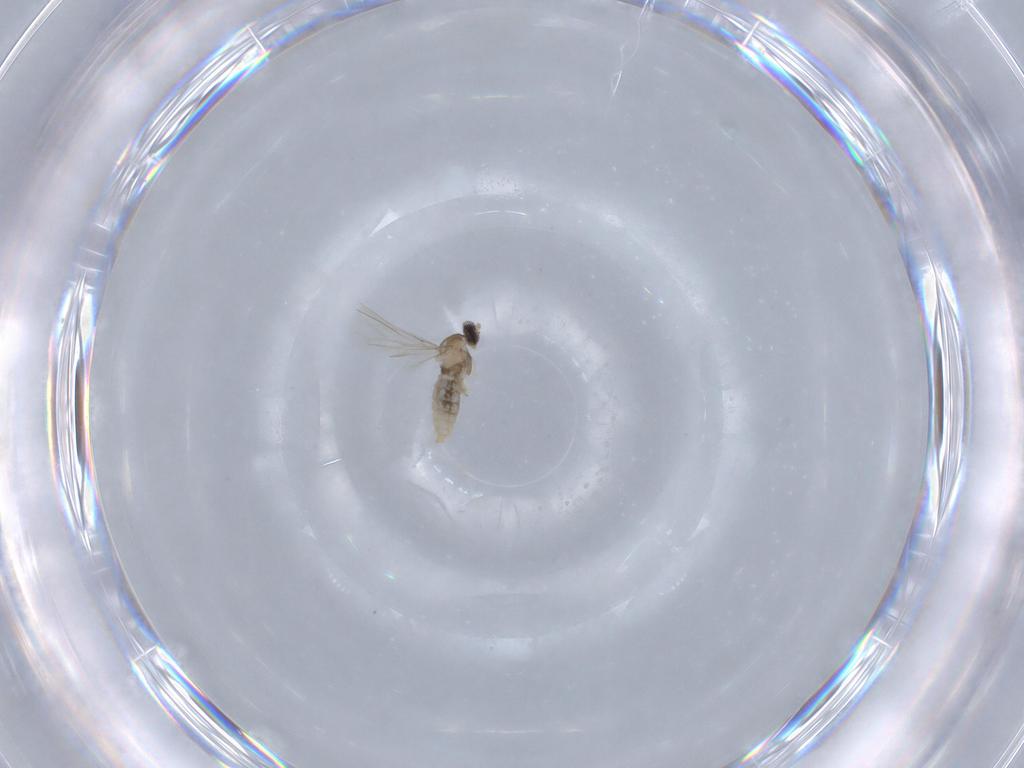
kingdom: Animalia
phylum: Arthropoda
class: Insecta
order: Diptera
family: Cecidomyiidae
